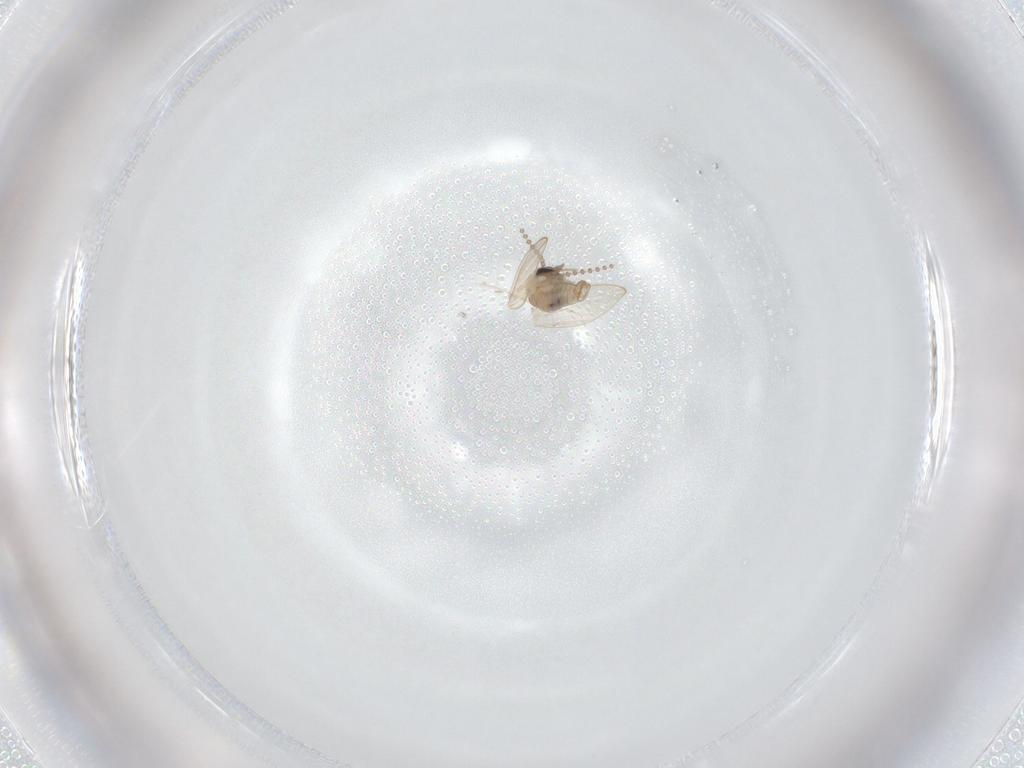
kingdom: Animalia
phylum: Arthropoda
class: Insecta
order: Diptera
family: Psychodidae
